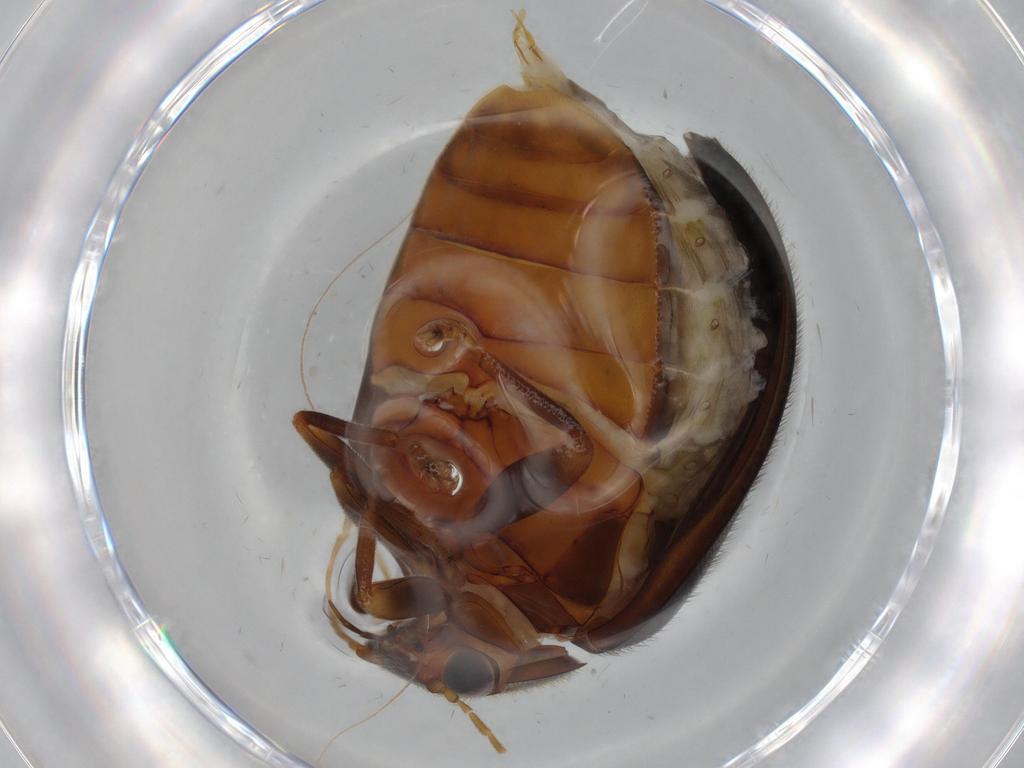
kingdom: Animalia
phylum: Arthropoda
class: Insecta
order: Coleoptera
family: Scirtidae
